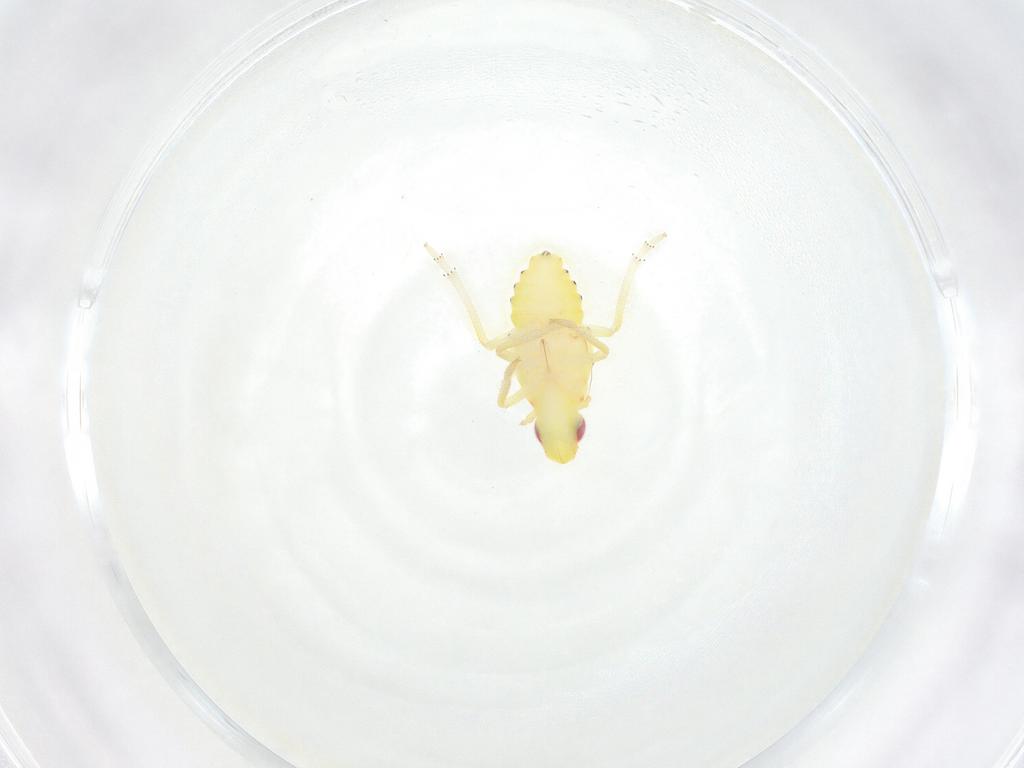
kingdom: Animalia
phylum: Arthropoda
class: Insecta
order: Hemiptera
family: Tropiduchidae
